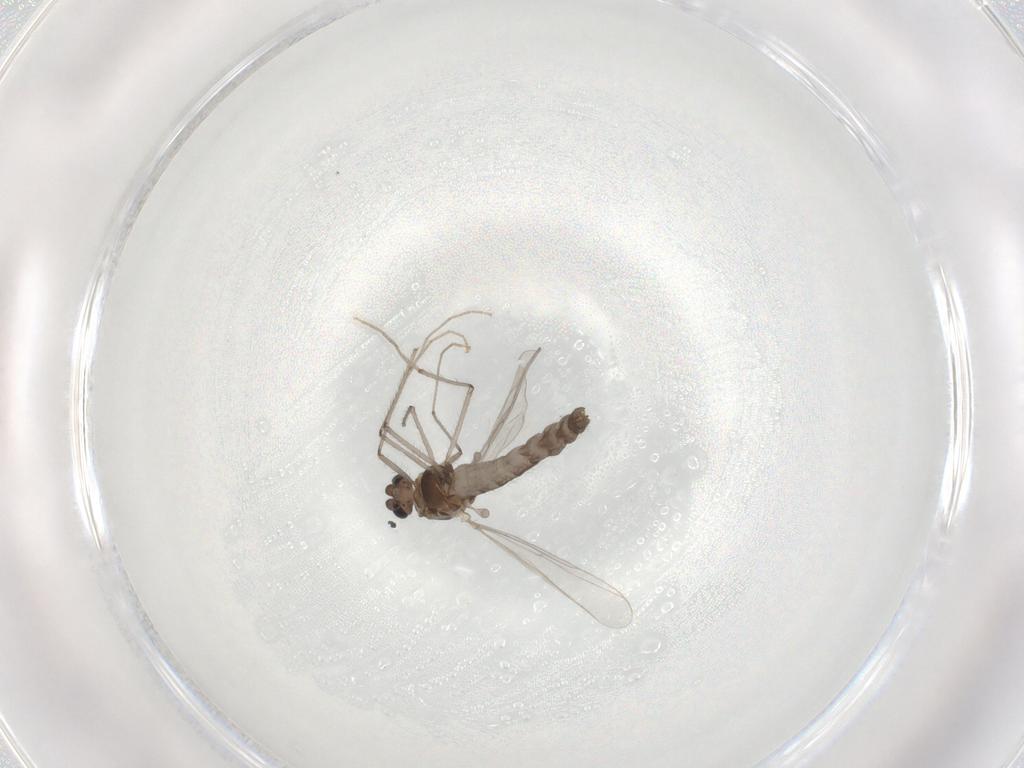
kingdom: Animalia
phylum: Arthropoda
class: Insecta
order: Diptera
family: Chironomidae
